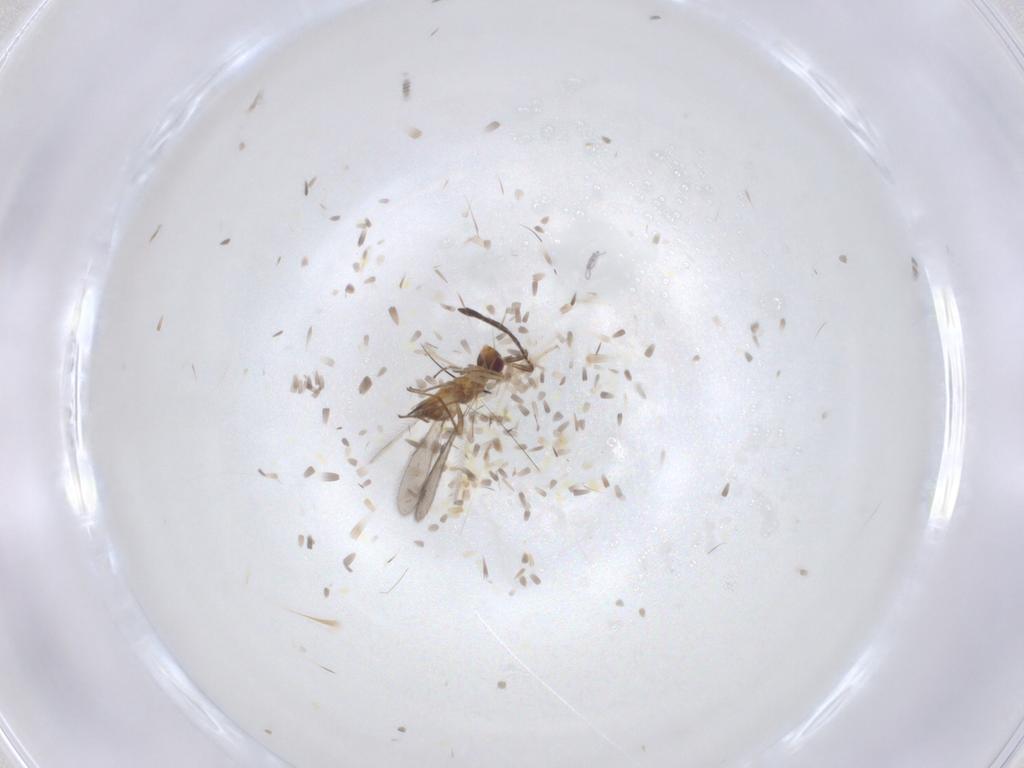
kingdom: Animalia
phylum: Arthropoda
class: Insecta
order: Hymenoptera
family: Mymaridae
